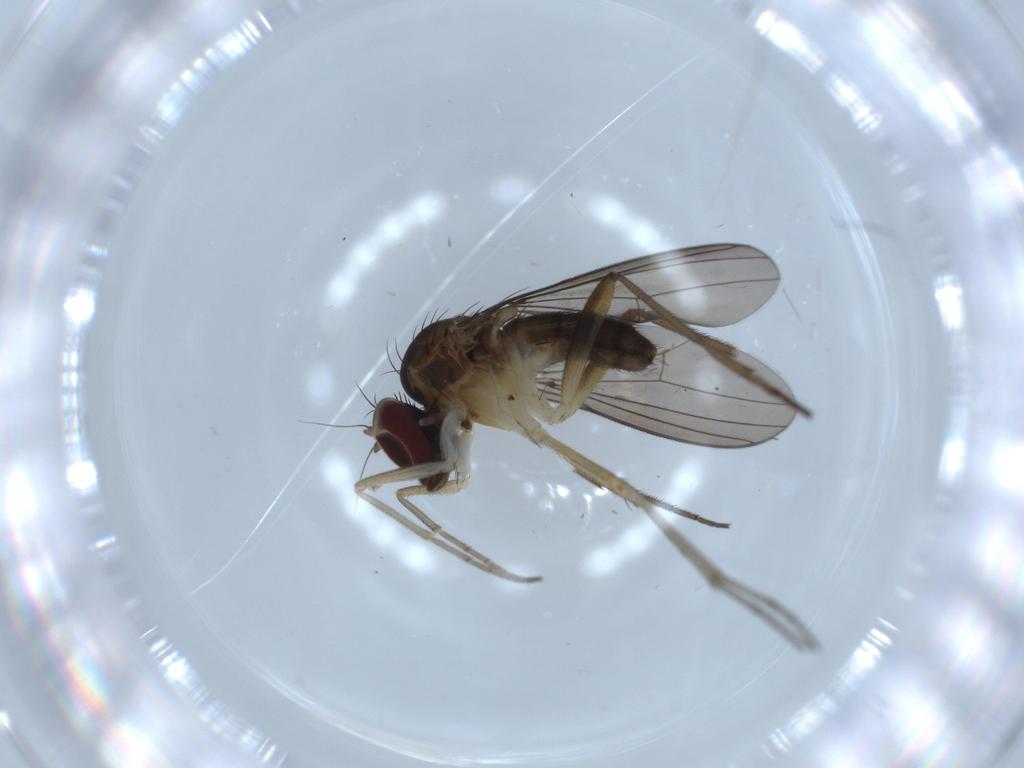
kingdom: Animalia
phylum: Arthropoda
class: Insecta
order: Diptera
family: Dolichopodidae
